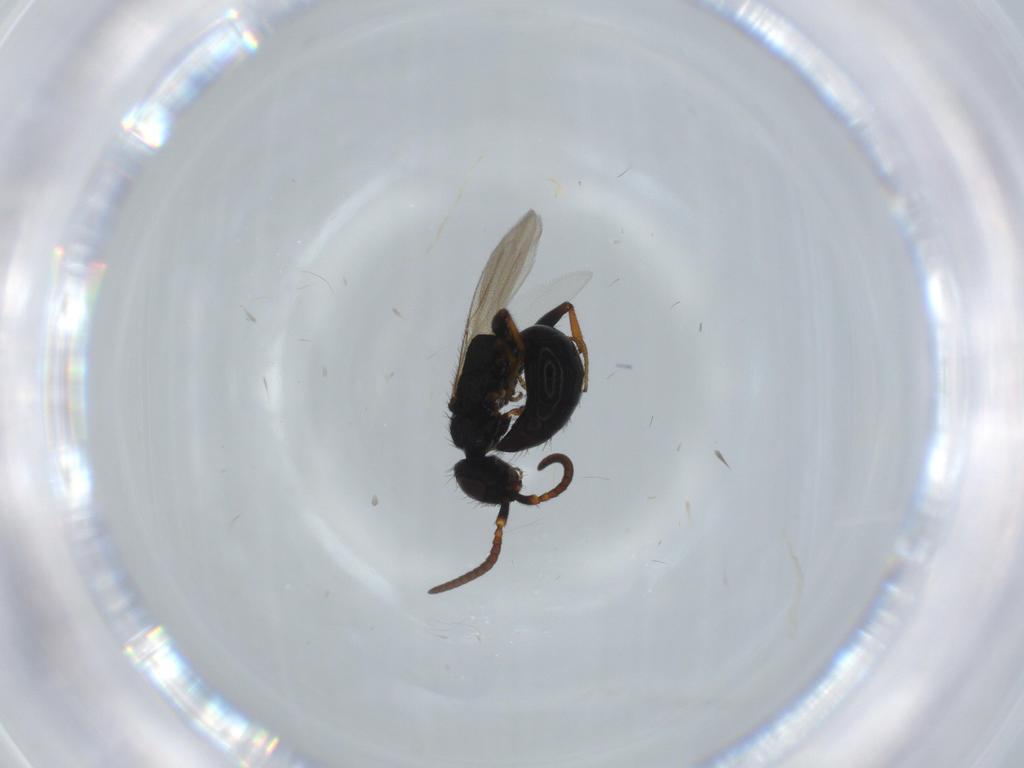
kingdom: Animalia
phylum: Arthropoda
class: Insecta
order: Hymenoptera
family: Bethylidae
